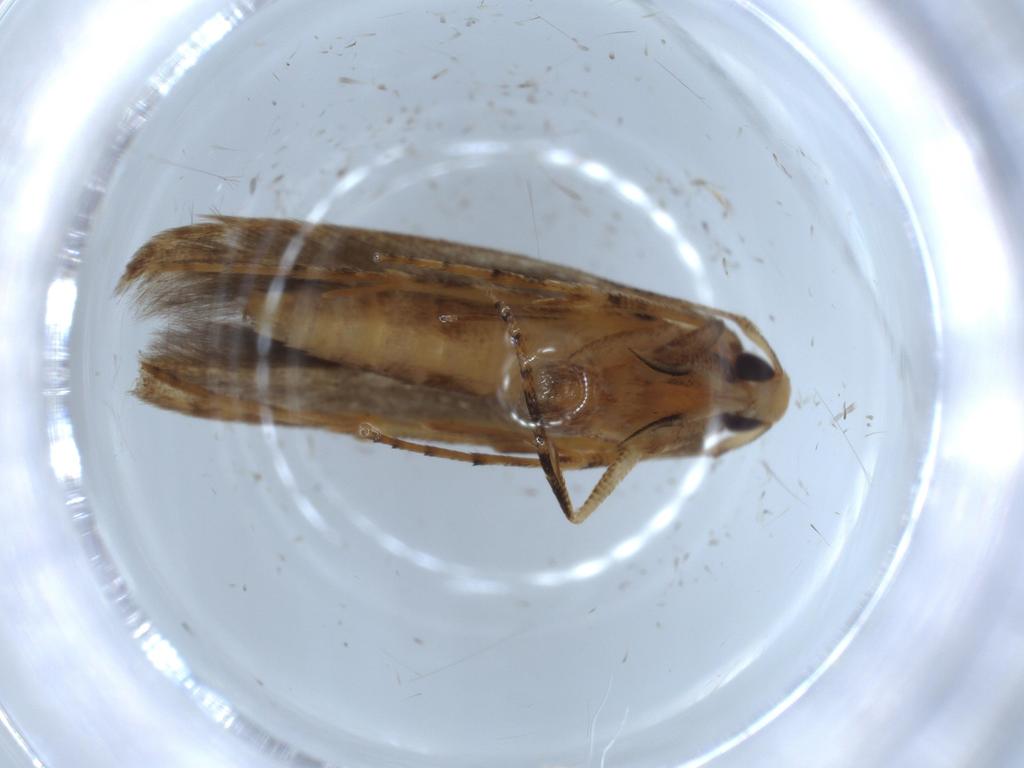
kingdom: Animalia
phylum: Arthropoda
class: Insecta
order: Lepidoptera
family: Heliodinidae
